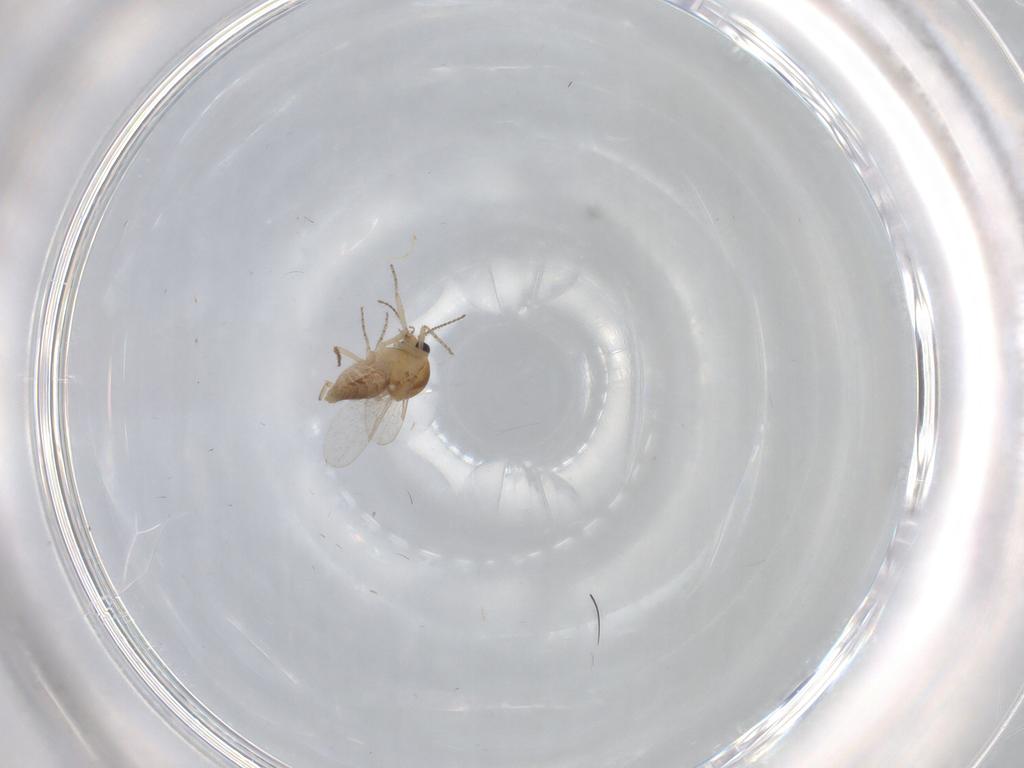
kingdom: Animalia
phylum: Arthropoda
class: Insecta
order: Diptera
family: Ceratopogonidae
